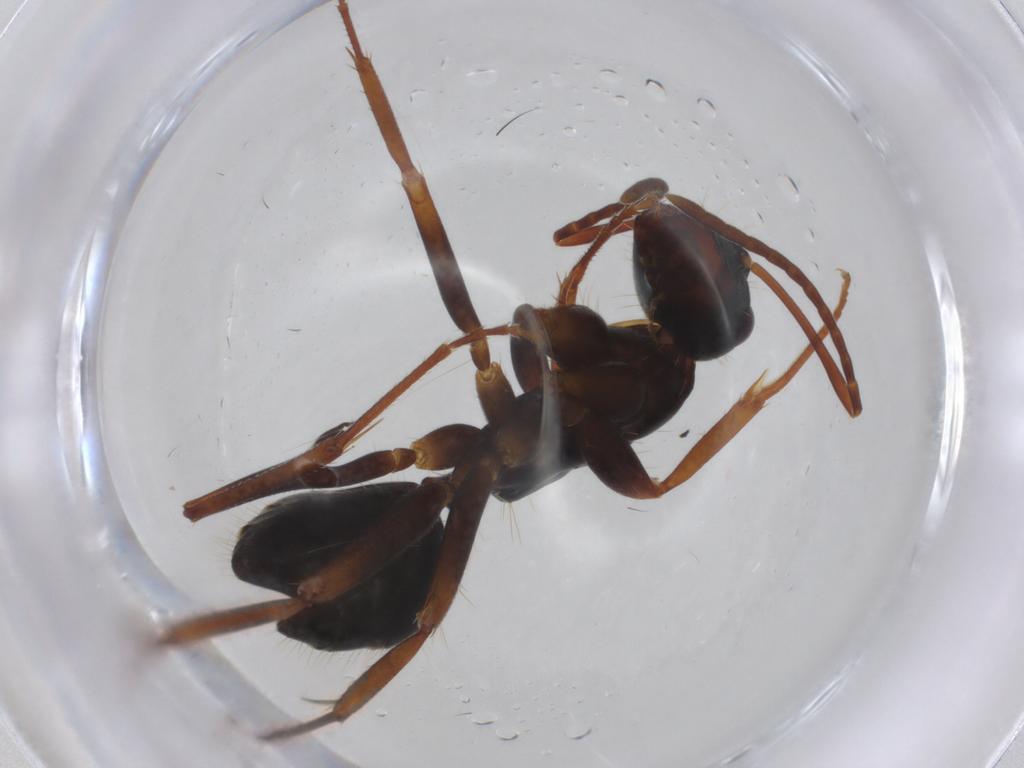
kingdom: Animalia
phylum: Arthropoda
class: Insecta
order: Hymenoptera
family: Formicidae
